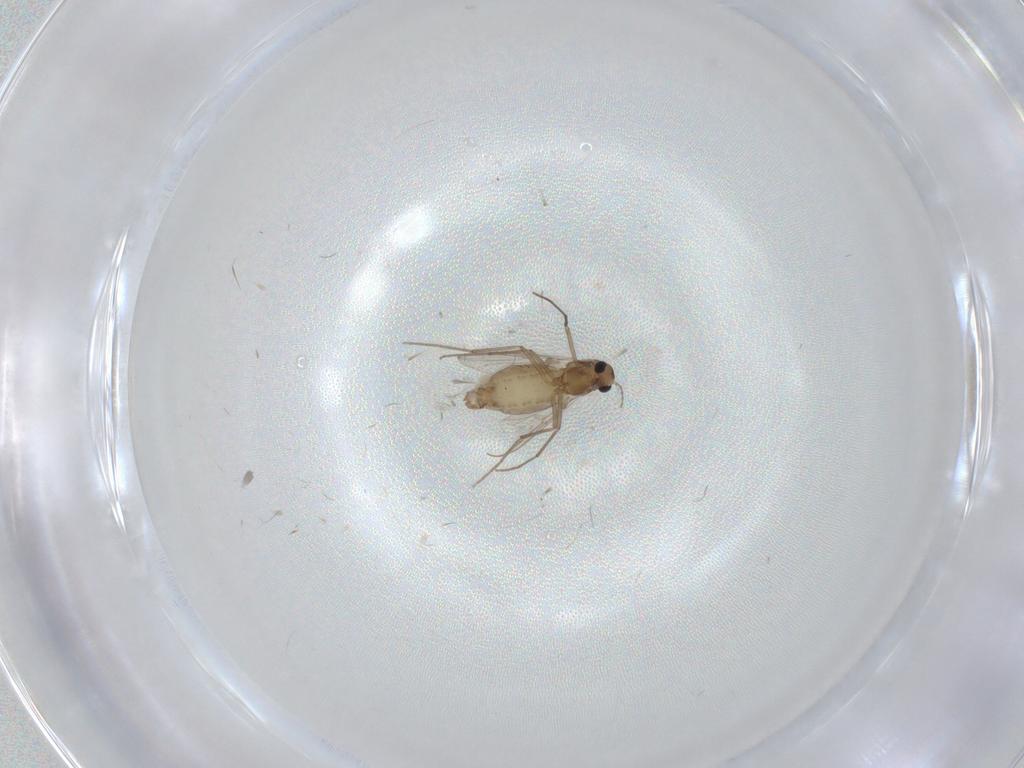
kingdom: Animalia
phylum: Arthropoda
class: Insecta
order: Diptera
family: Chironomidae
